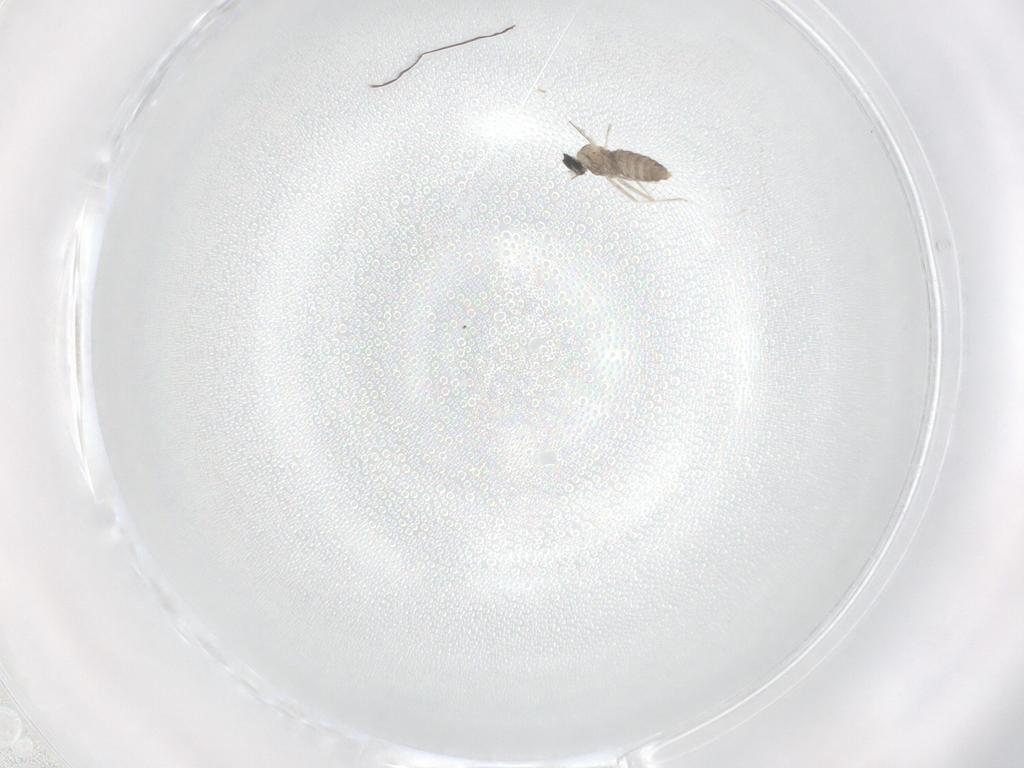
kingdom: Animalia
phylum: Arthropoda
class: Insecta
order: Diptera
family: Cecidomyiidae
